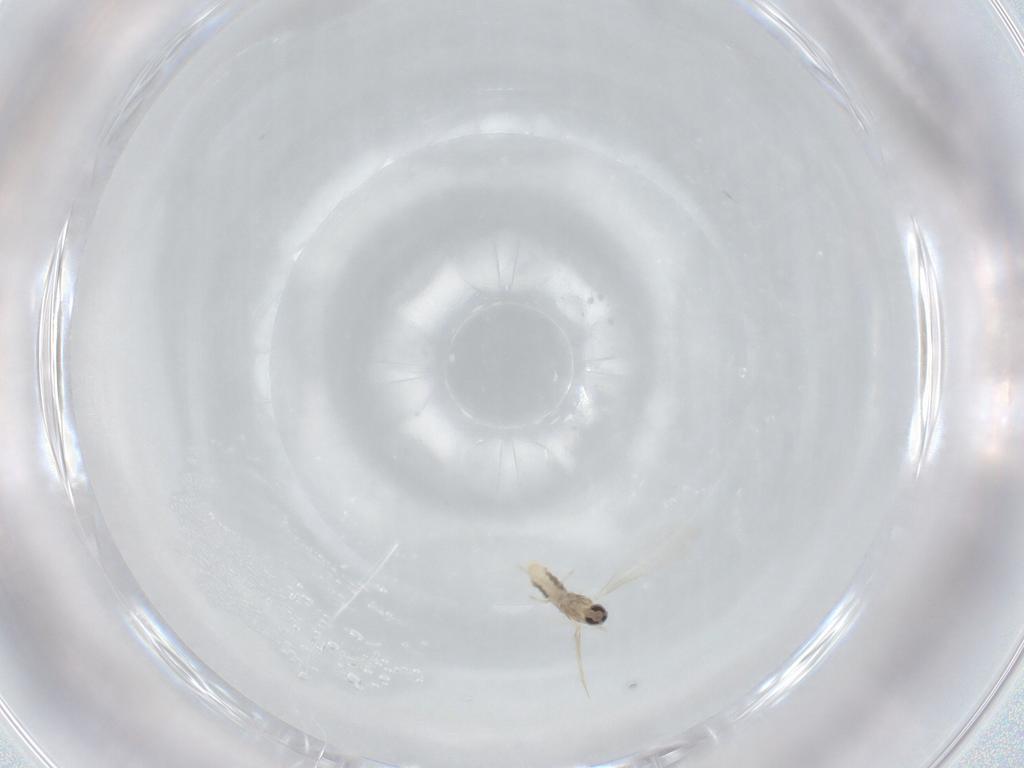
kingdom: Animalia
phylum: Arthropoda
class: Insecta
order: Diptera
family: Cecidomyiidae
